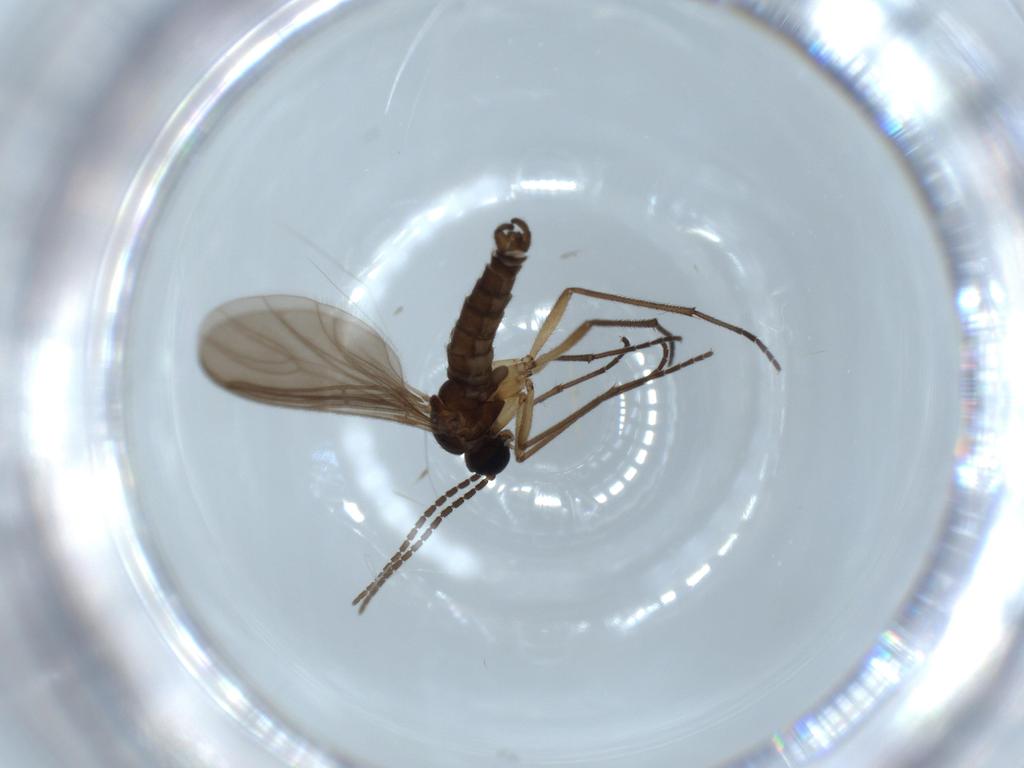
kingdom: Animalia
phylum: Arthropoda
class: Insecta
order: Diptera
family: Sciaridae
